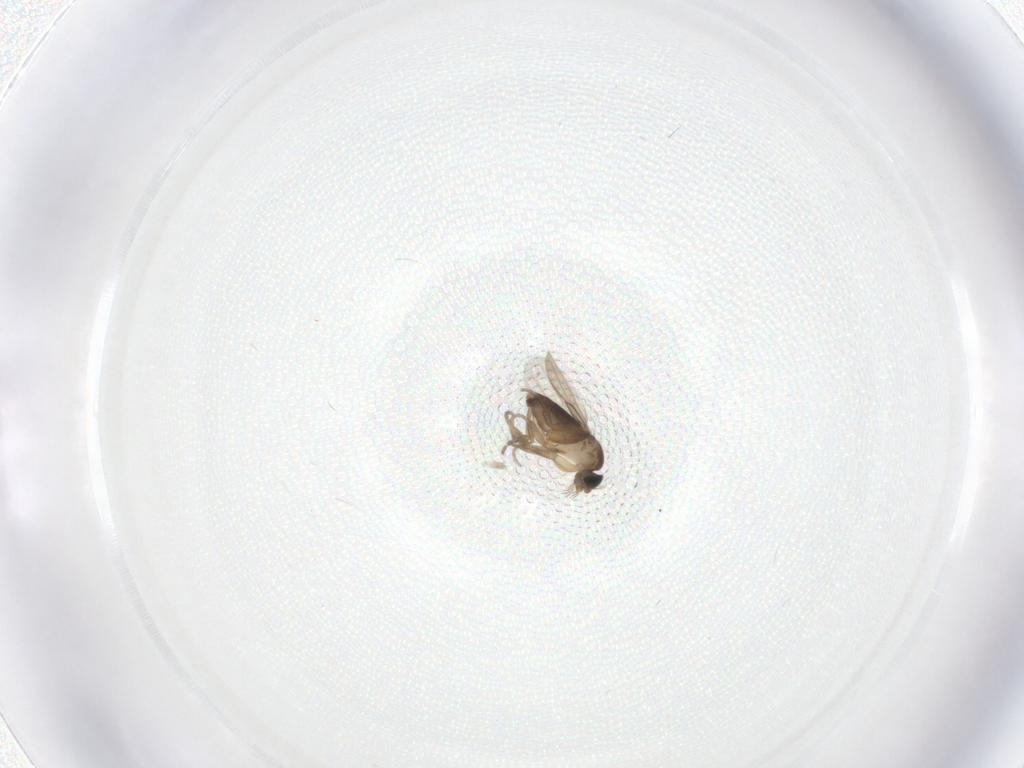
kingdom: Animalia
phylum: Arthropoda
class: Insecta
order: Diptera
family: Phoridae
